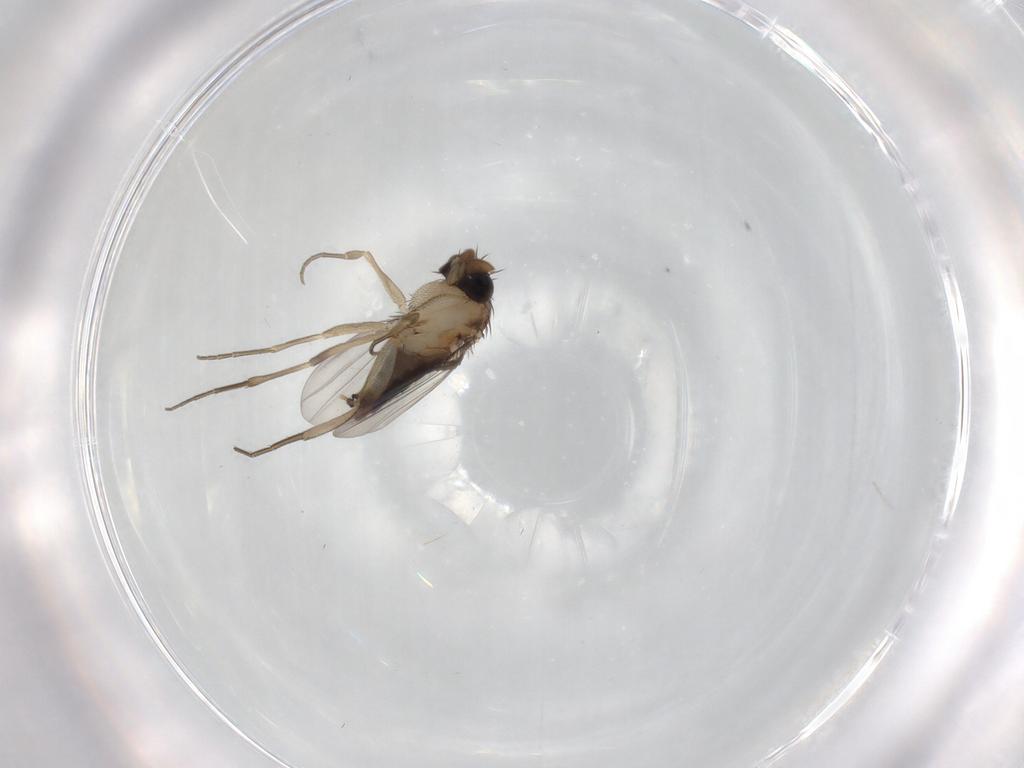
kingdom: Animalia
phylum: Arthropoda
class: Insecta
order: Diptera
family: Phoridae
